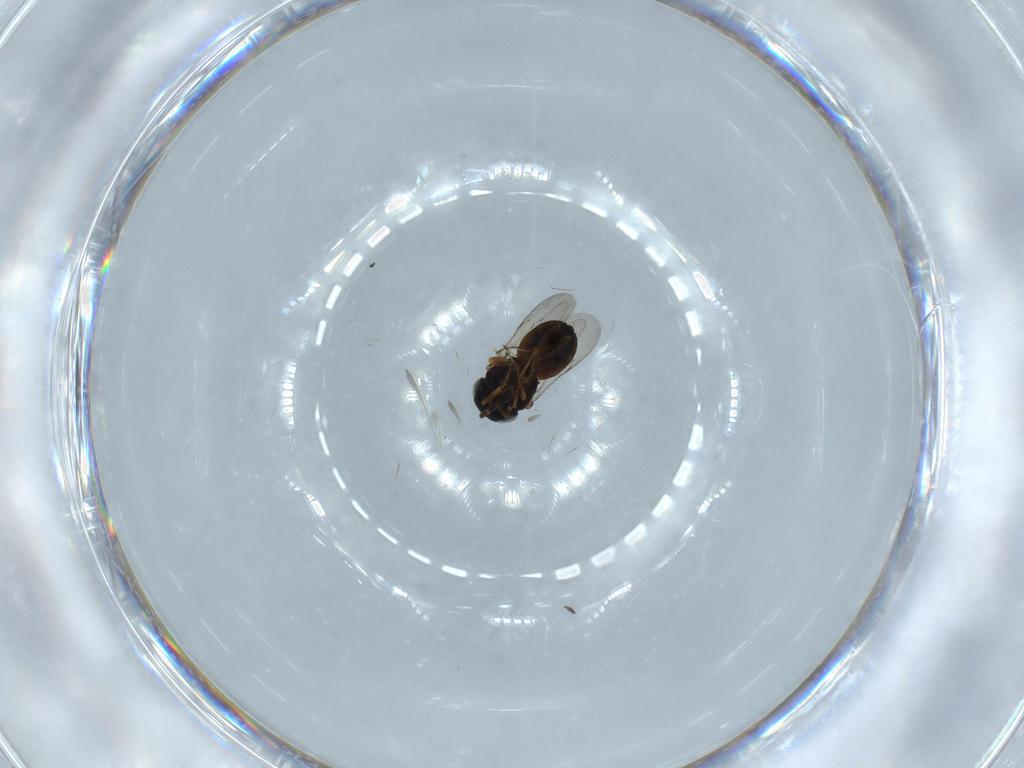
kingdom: Animalia
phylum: Arthropoda
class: Insecta
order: Hymenoptera
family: Scelionidae
